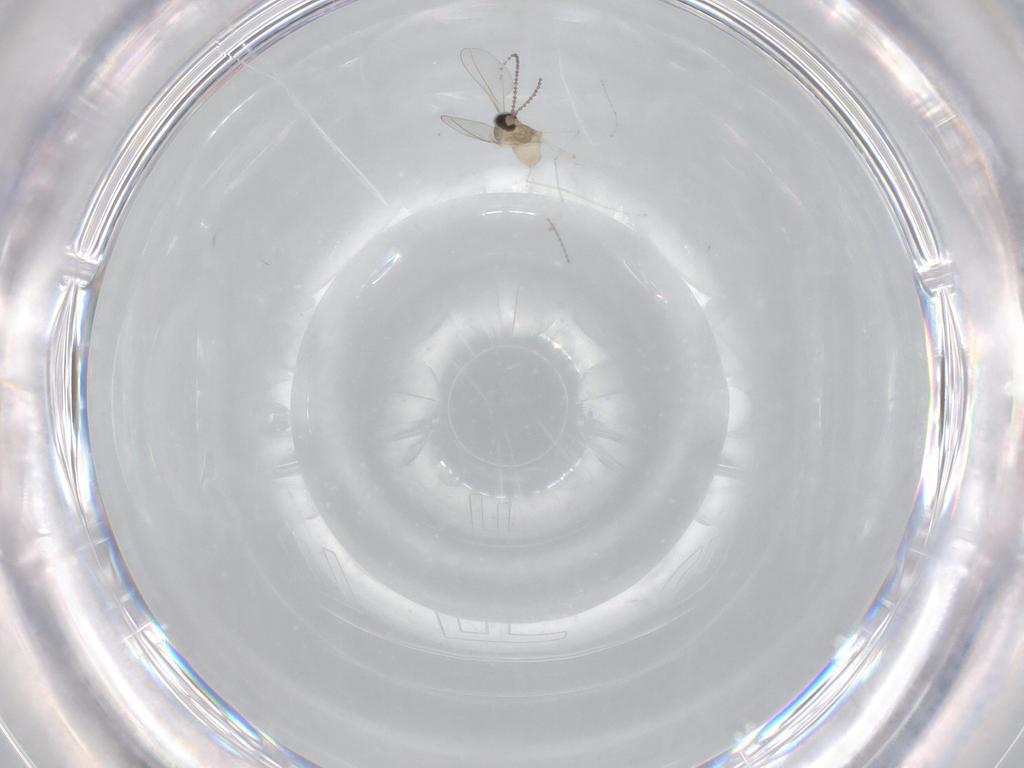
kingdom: Animalia
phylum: Arthropoda
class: Insecta
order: Diptera
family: Cecidomyiidae
